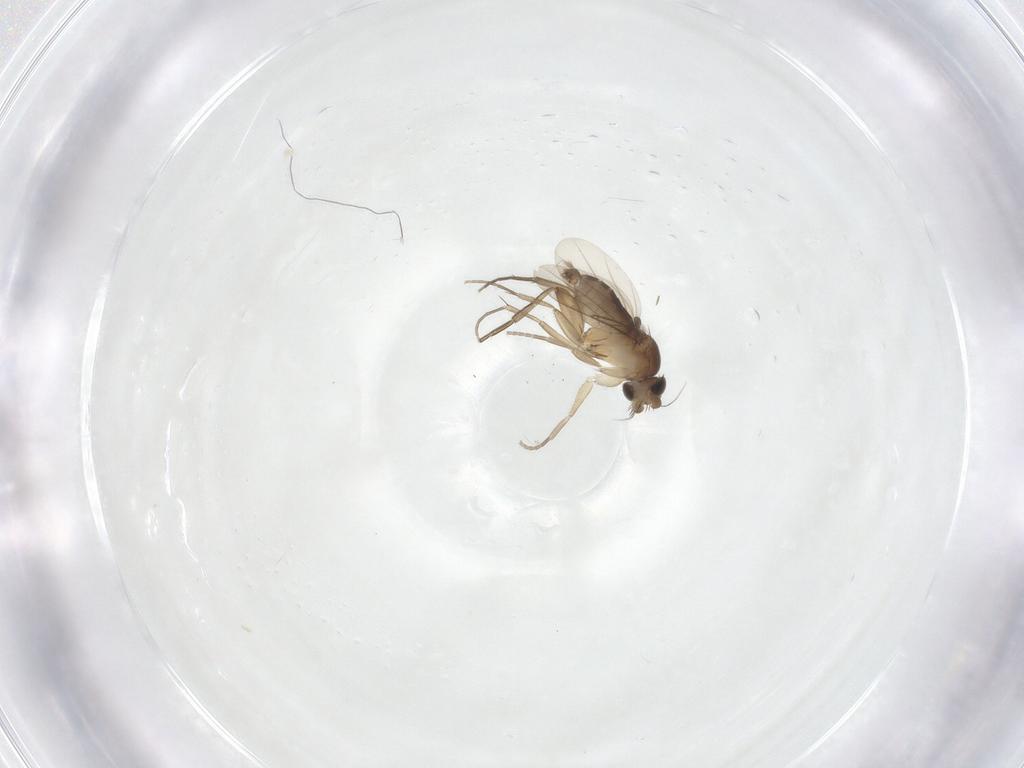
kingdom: Animalia
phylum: Arthropoda
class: Insecta
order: Diptera
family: Phoridae
